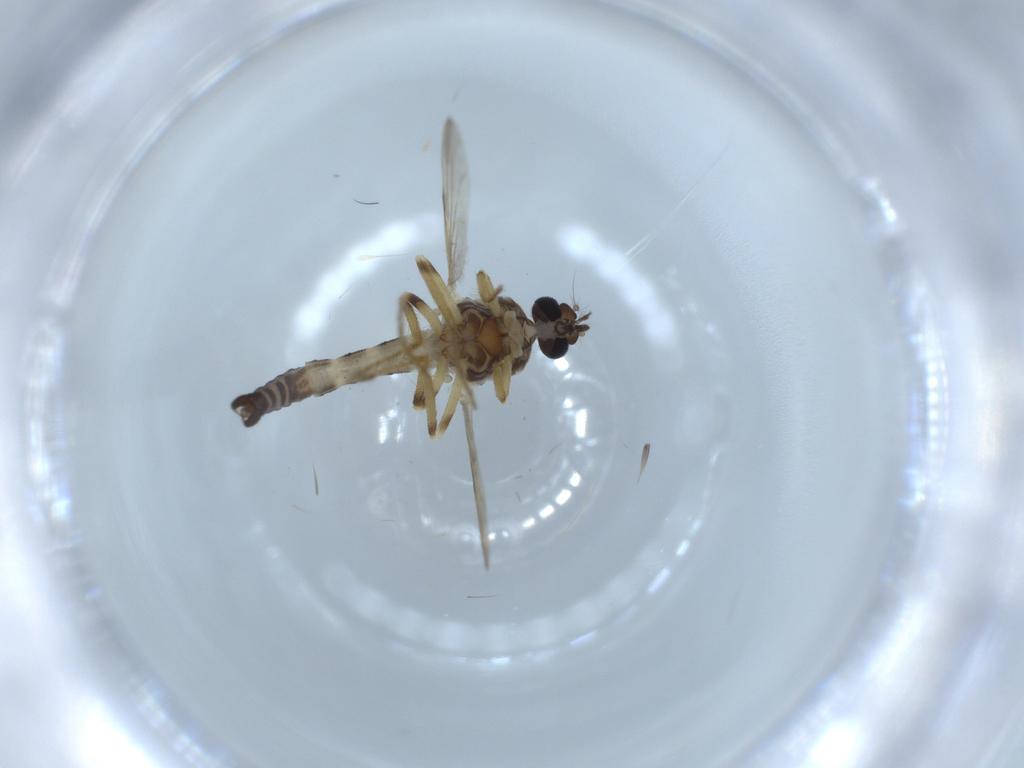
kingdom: Animalia
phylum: Arthropoda
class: Insecta
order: Diptera
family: Ceratopogonidae
